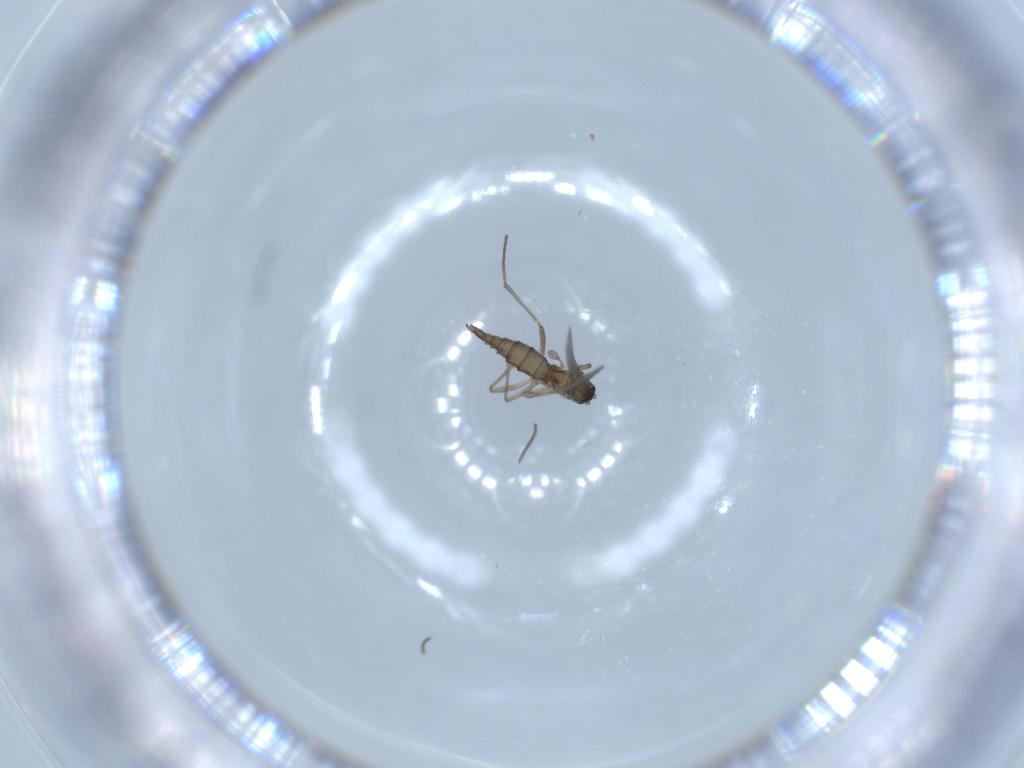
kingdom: Animalia
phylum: Arthropoda
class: Insecta
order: Diptera
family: Sciaridae
